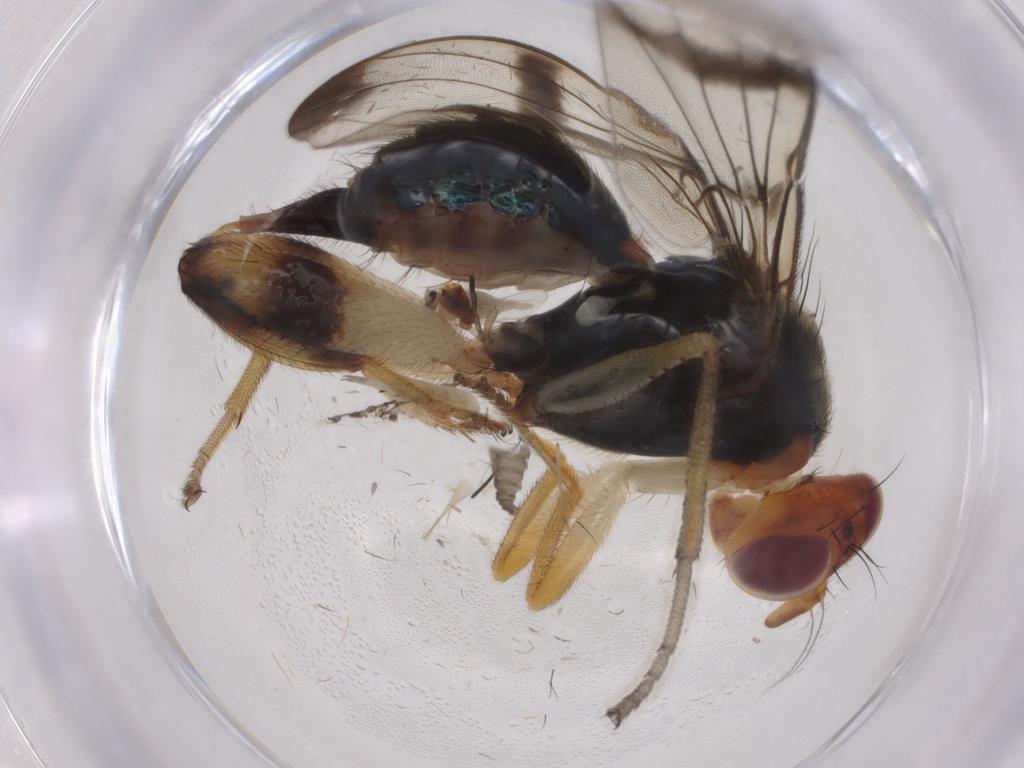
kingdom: Animalia
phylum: Arthropoda
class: Insecta
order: Diptera
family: Richardiidae
